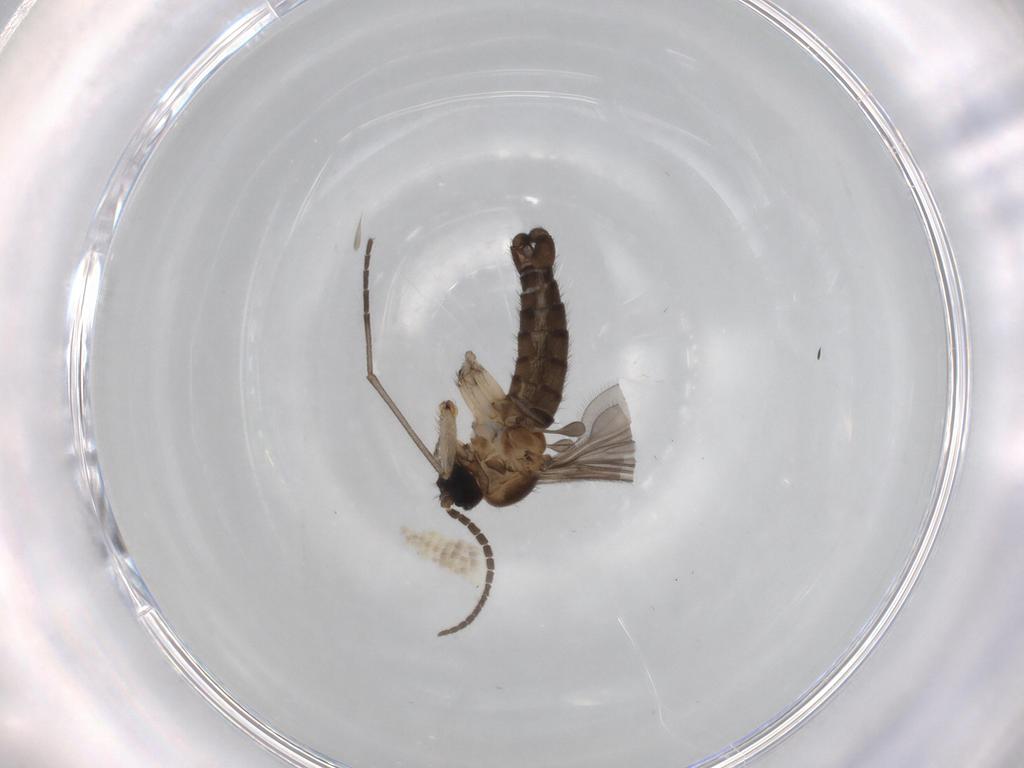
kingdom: Animalia
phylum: Arthropoda
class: Insecta
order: Diptera
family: Sciaridae
